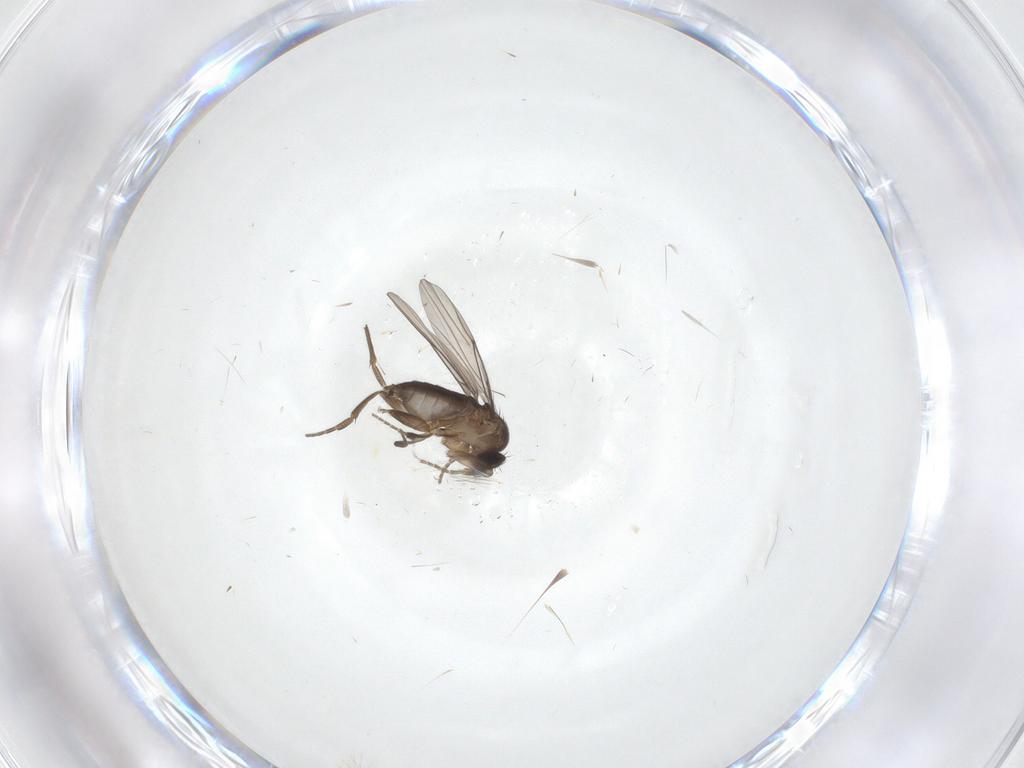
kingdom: Animalia
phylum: Arthropoda
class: Insecta
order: Diptera
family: Phoridae
